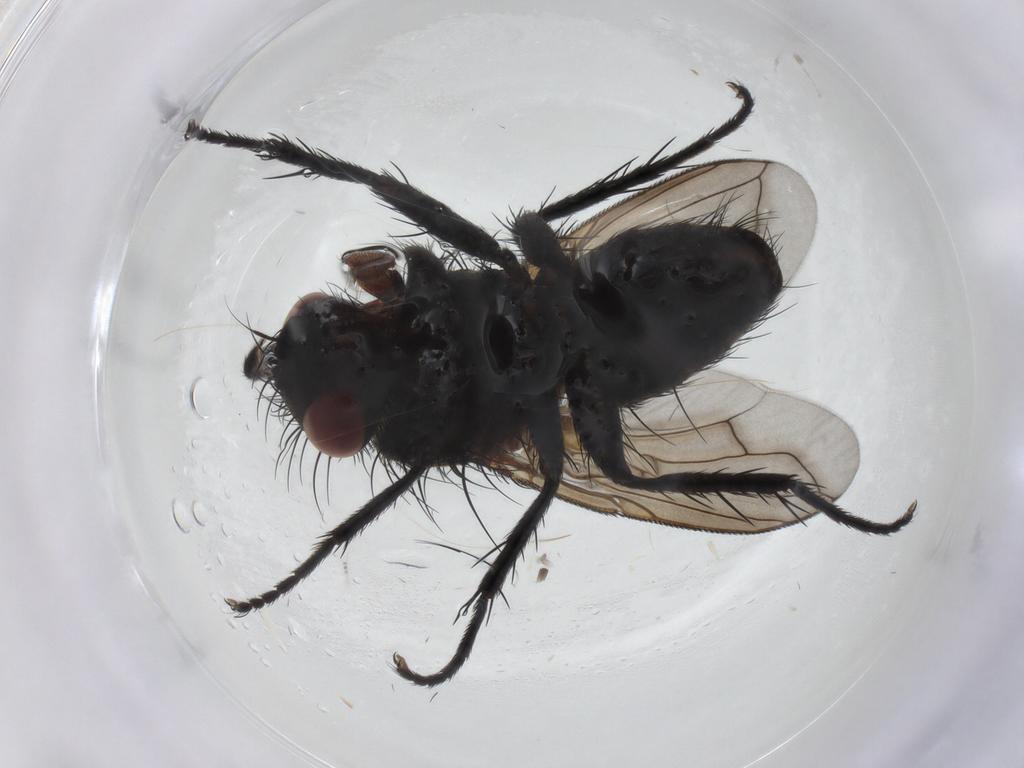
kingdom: Animalia
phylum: Arthropoda
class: Insecta
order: Diptera
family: Tachinidae
